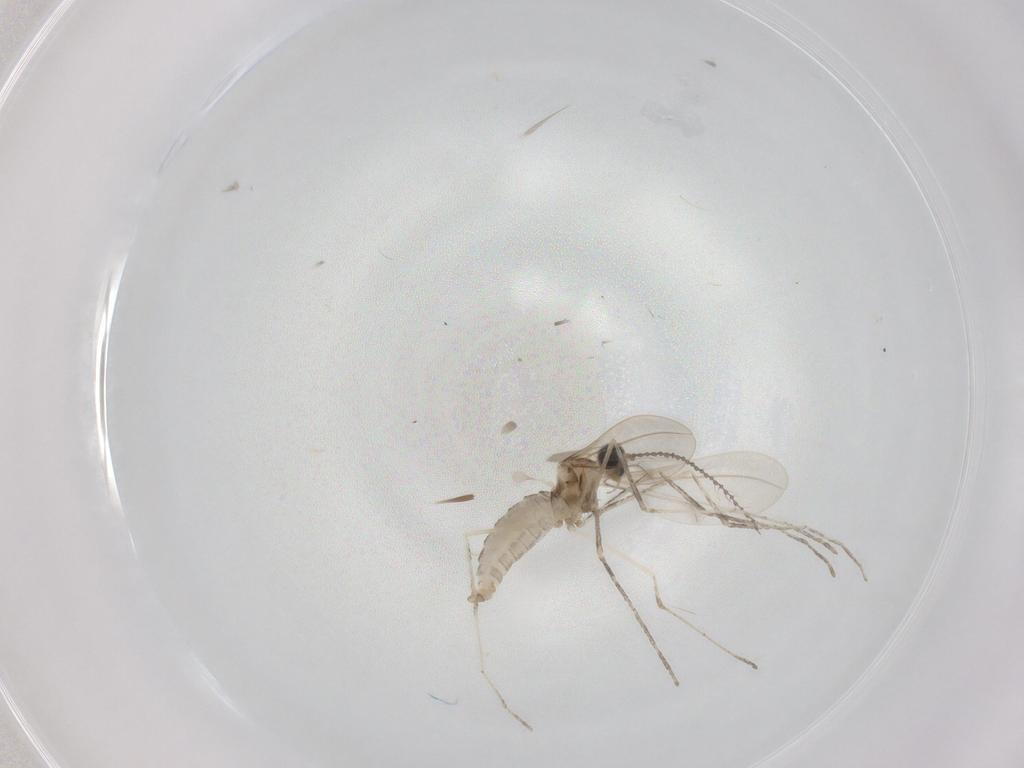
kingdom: Animalia
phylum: Arthropoda
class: Insecta
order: Diptera
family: Cecidomyiidae
